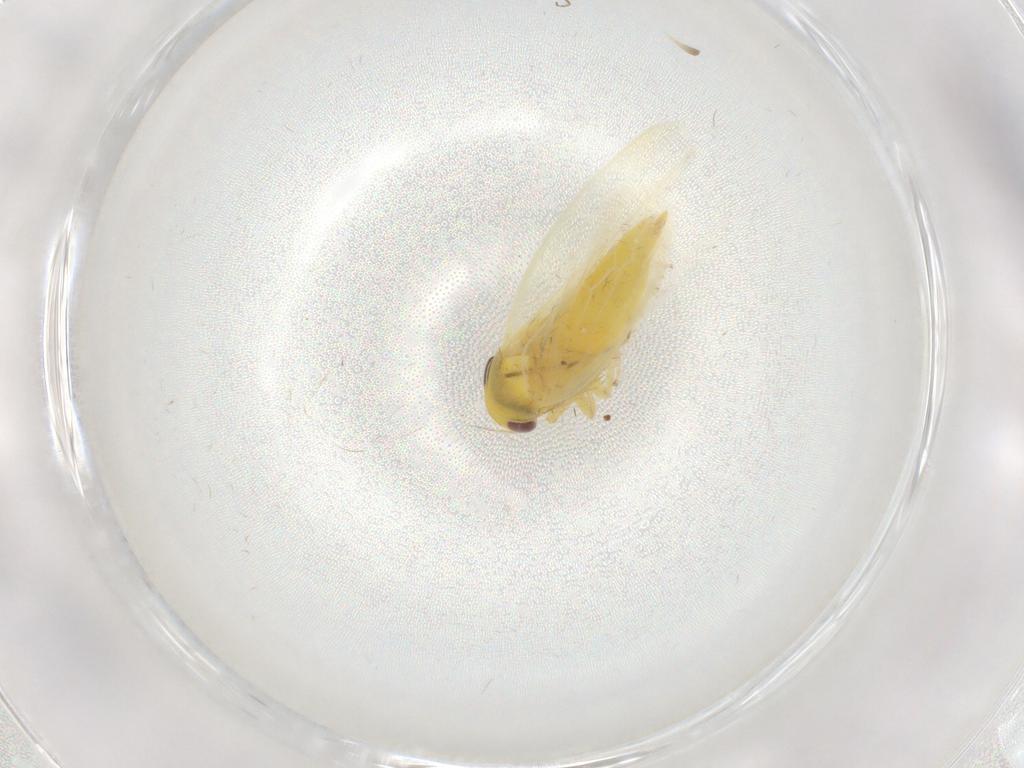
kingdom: Animalia
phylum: Arthropoda
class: Insecta
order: Hemiptera
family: Cicadellidae
